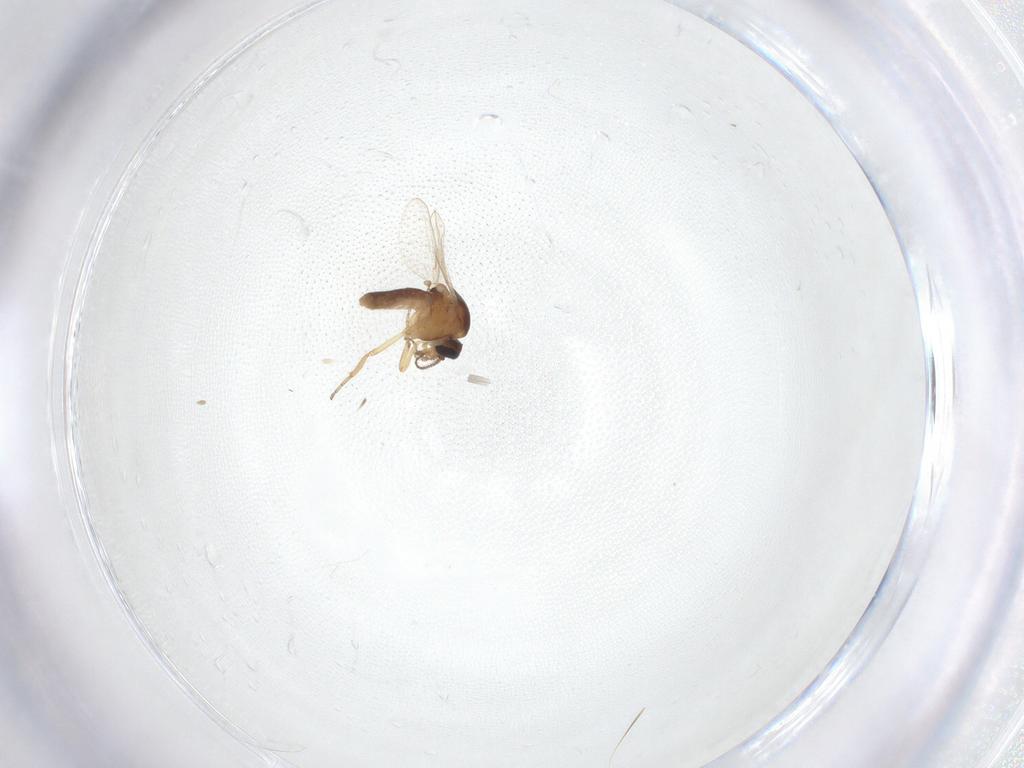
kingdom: Animalia
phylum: Arthropoda
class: Insecta
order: Diptera
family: Ceratopogonidae
